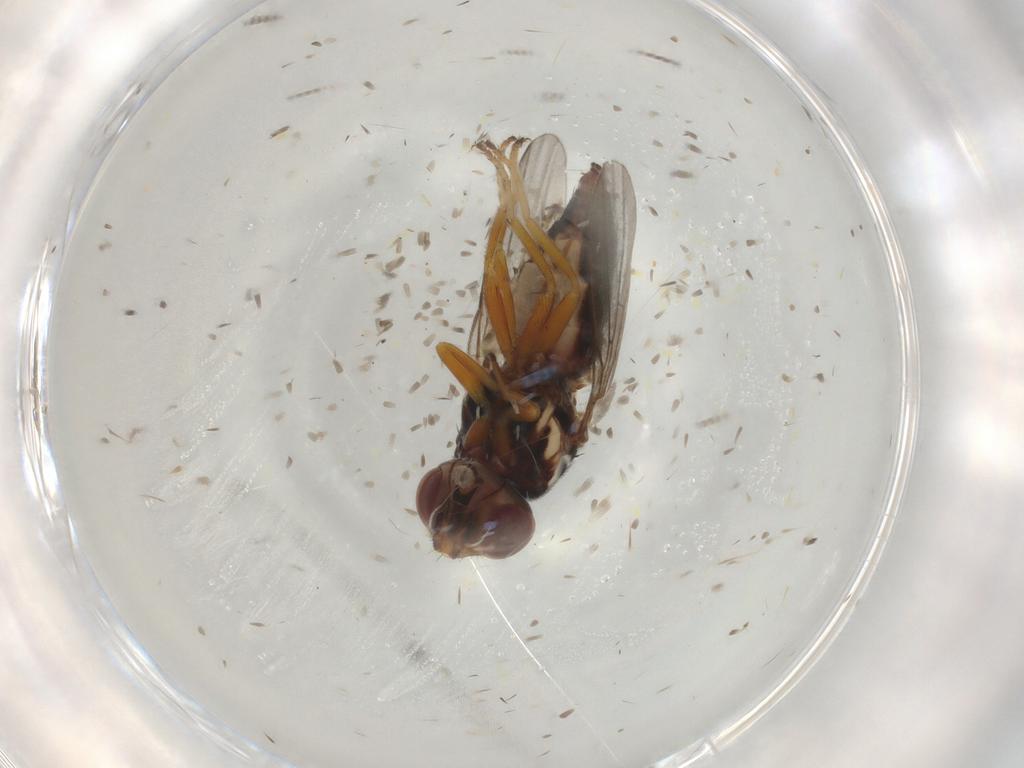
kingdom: Animalia
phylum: Arthropoda
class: Insecta
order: Diptera
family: Chloropidae
